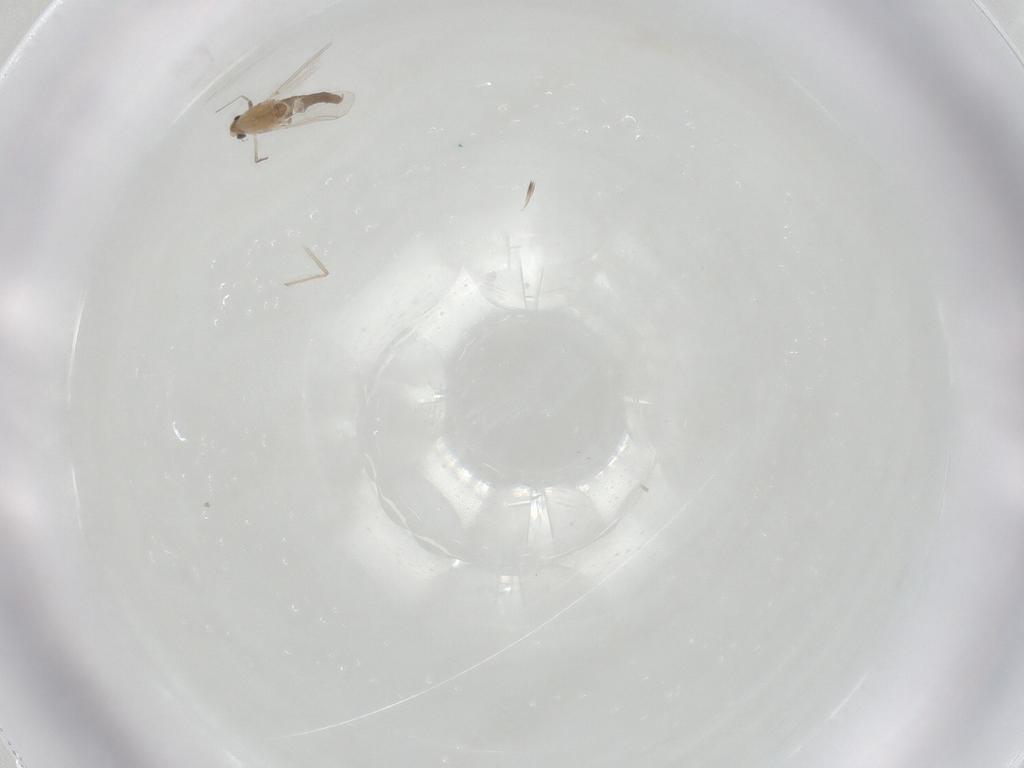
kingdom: Animalia
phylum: Arthropoda
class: Insecta
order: Diptera
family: Chironomidae
